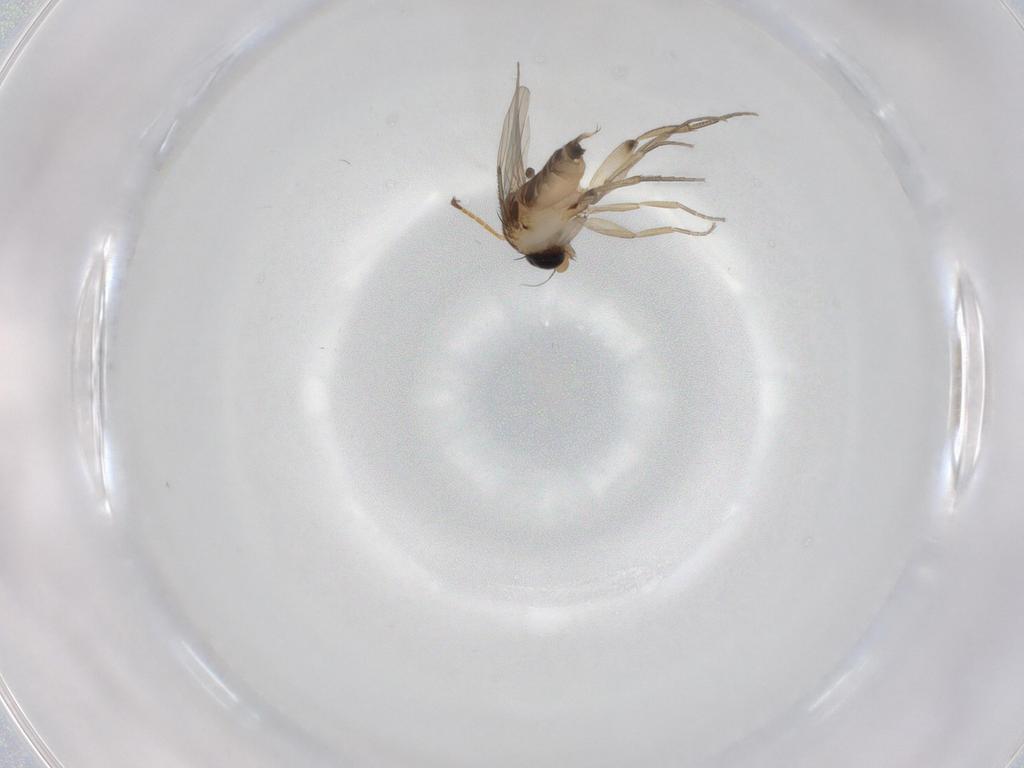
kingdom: Animalia
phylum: Arthropoda
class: Insecta
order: Diptera
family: Phoridae
